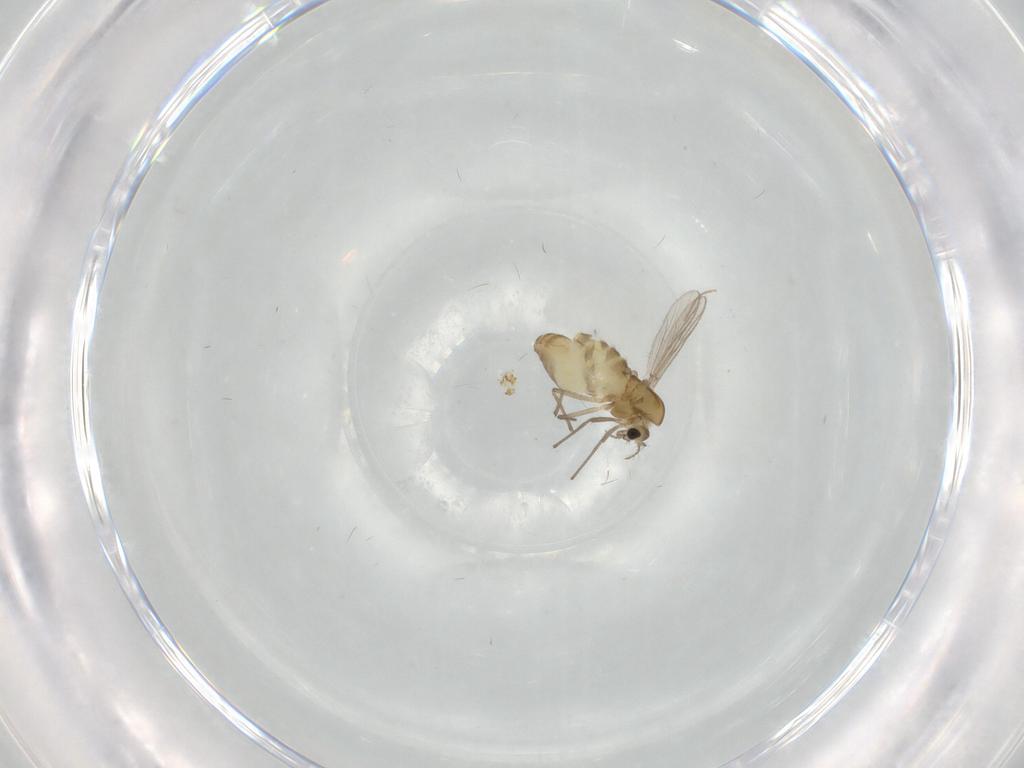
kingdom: Animalia
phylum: Arthropoda
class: Insecta
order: Diptera
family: Chironomidae
